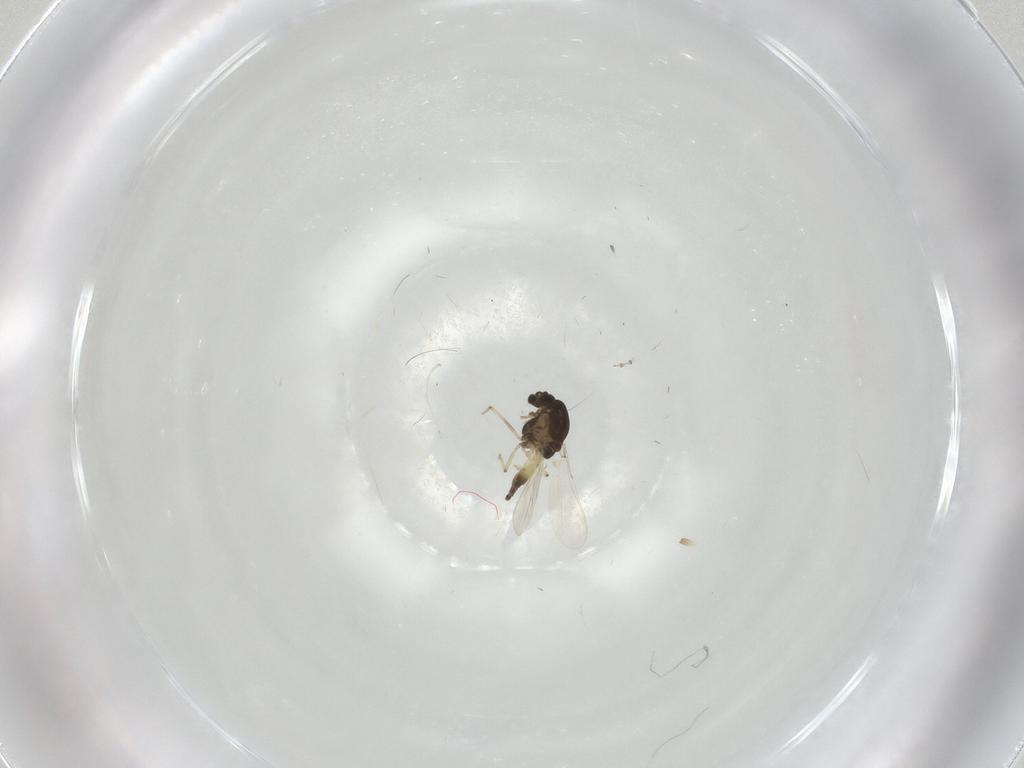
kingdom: Animalia
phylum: Arthropoda
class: Insecta
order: Diptera
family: Chironomidae
